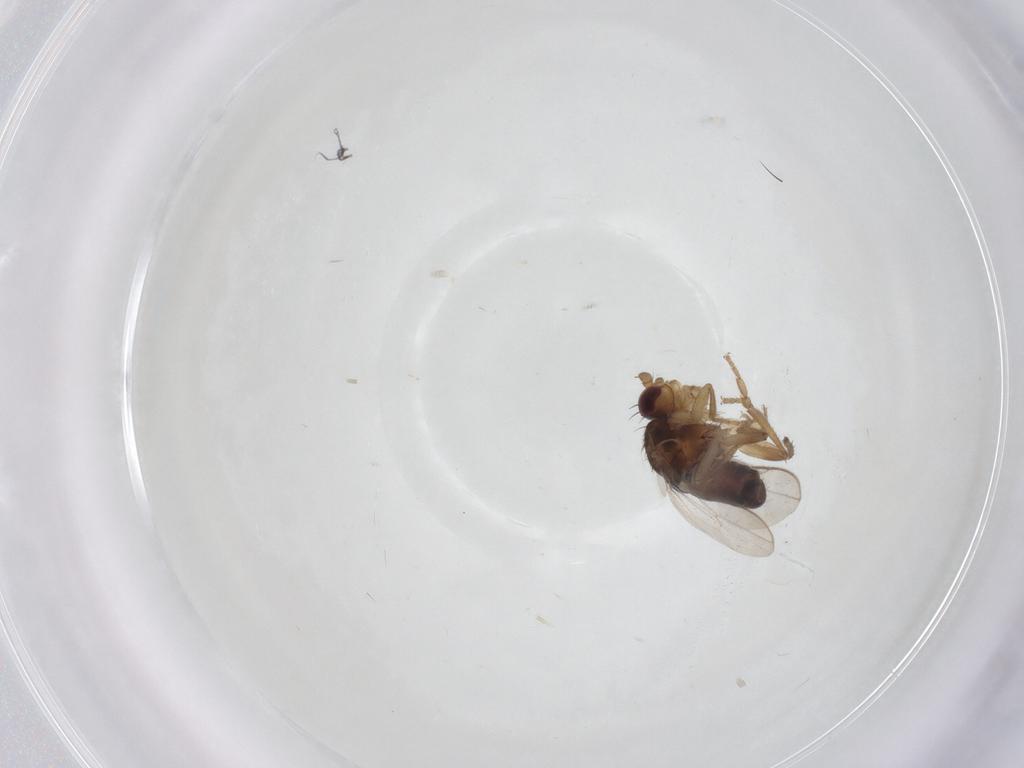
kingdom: Animalia
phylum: Arthropoda
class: Insecta
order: Diptera
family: Sphaeroceridae
